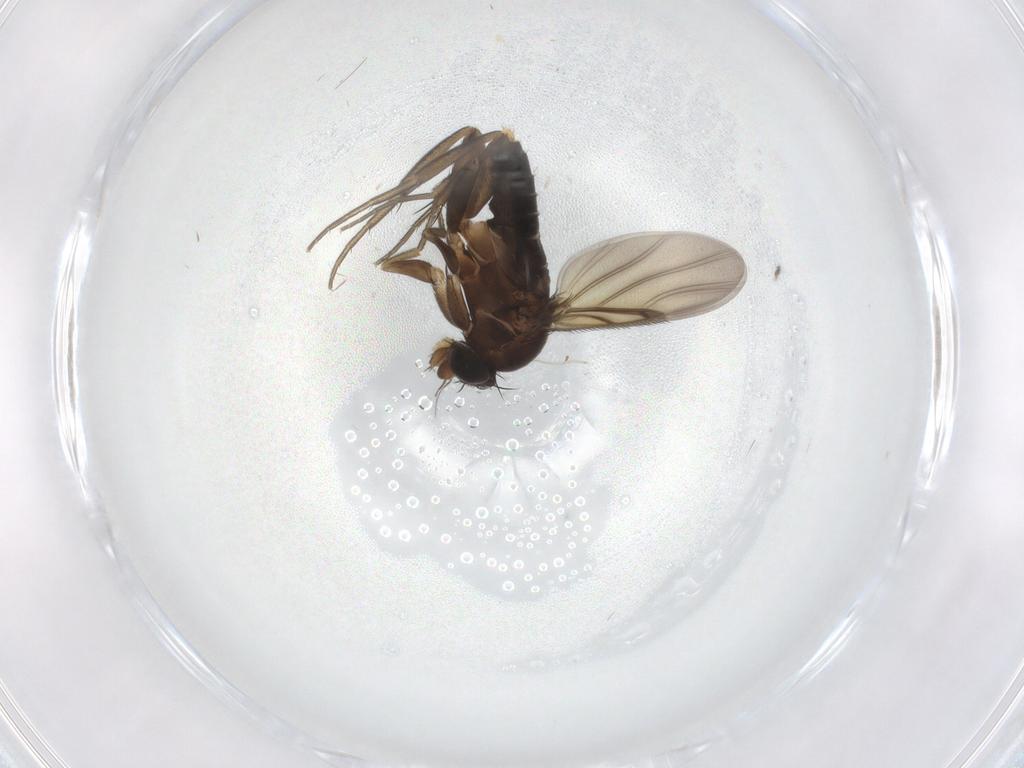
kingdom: Animalia
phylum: Arthropoda
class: Insecta
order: Diptera
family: Phoridae
